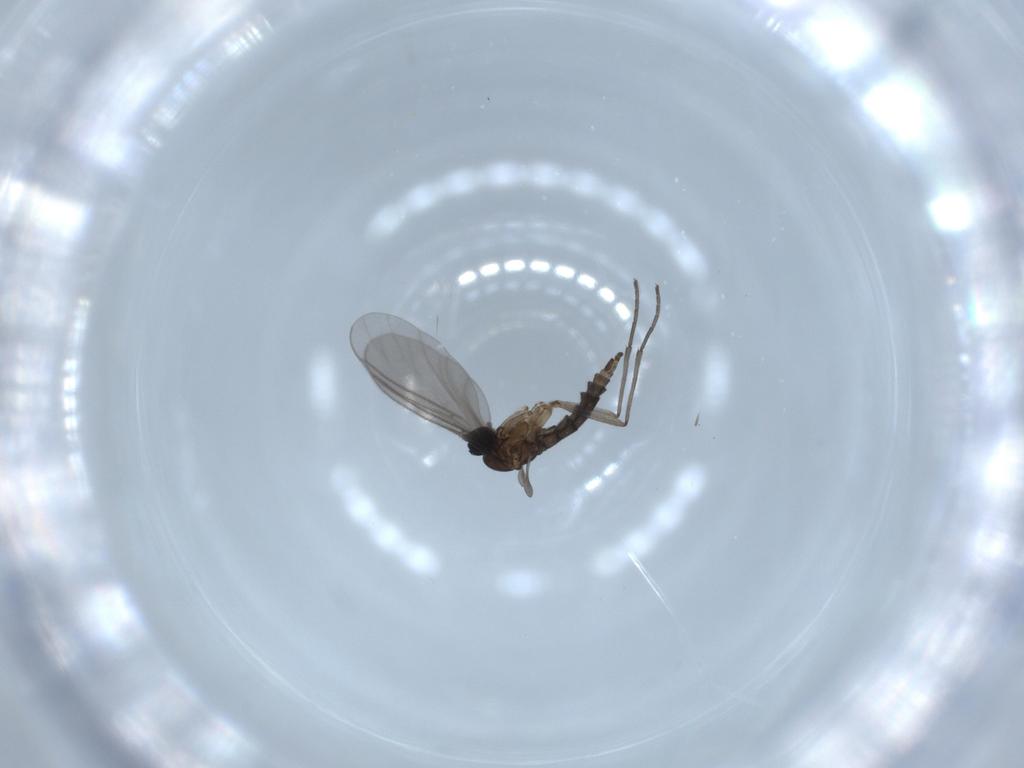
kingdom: Animalia
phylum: Arthropoda
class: Insecta
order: Diptera
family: Sciaridae
